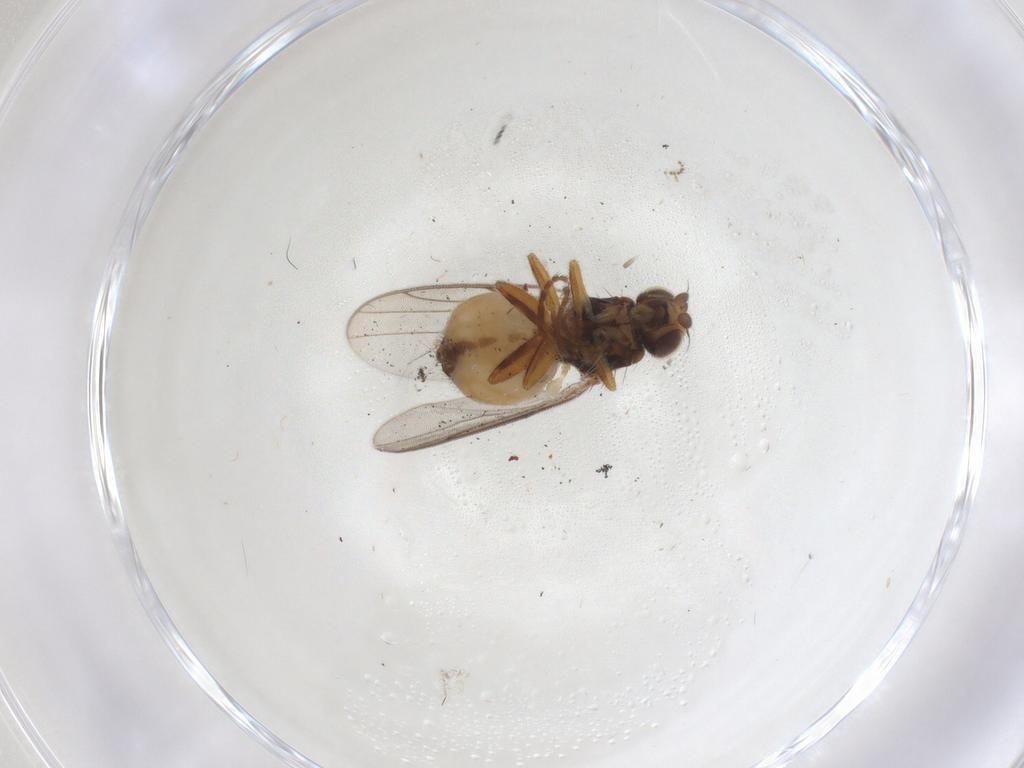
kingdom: Animalia
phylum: Arthropoda
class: Insecta
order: Diptera
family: Chloropidae
